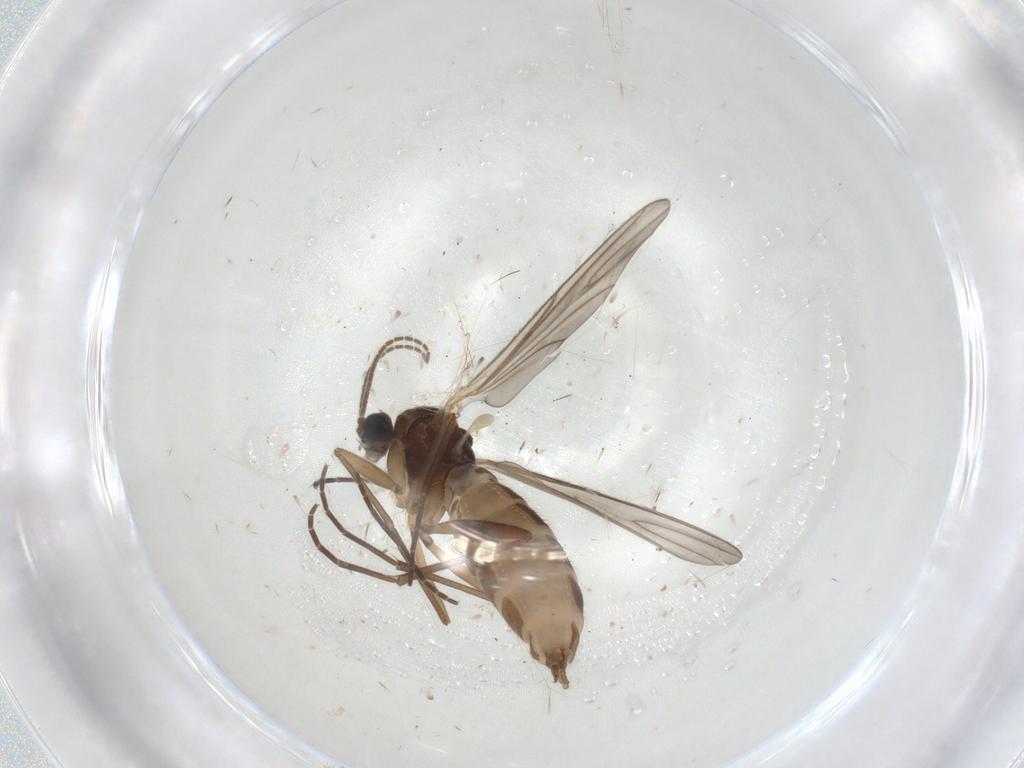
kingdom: Animalia
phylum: Arthropoda
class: Insecta
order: Diptera
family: Sciaridae
